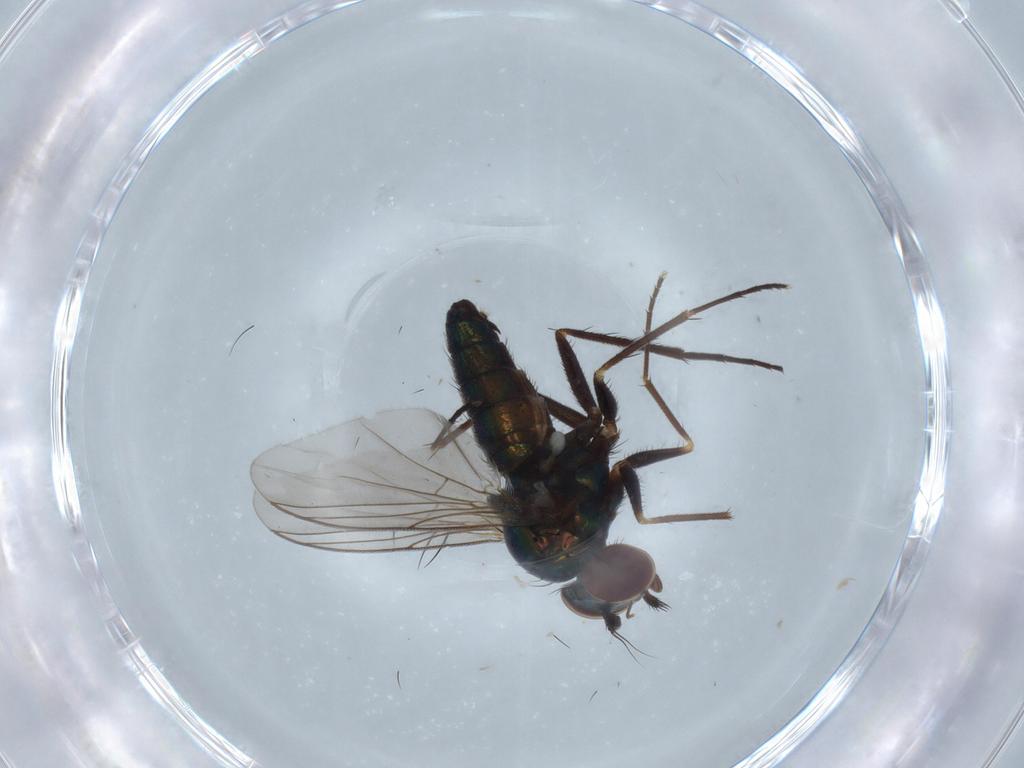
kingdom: Animalia
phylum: Arthropoda
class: Insecta
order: Diptera
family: Dolichopodidae
